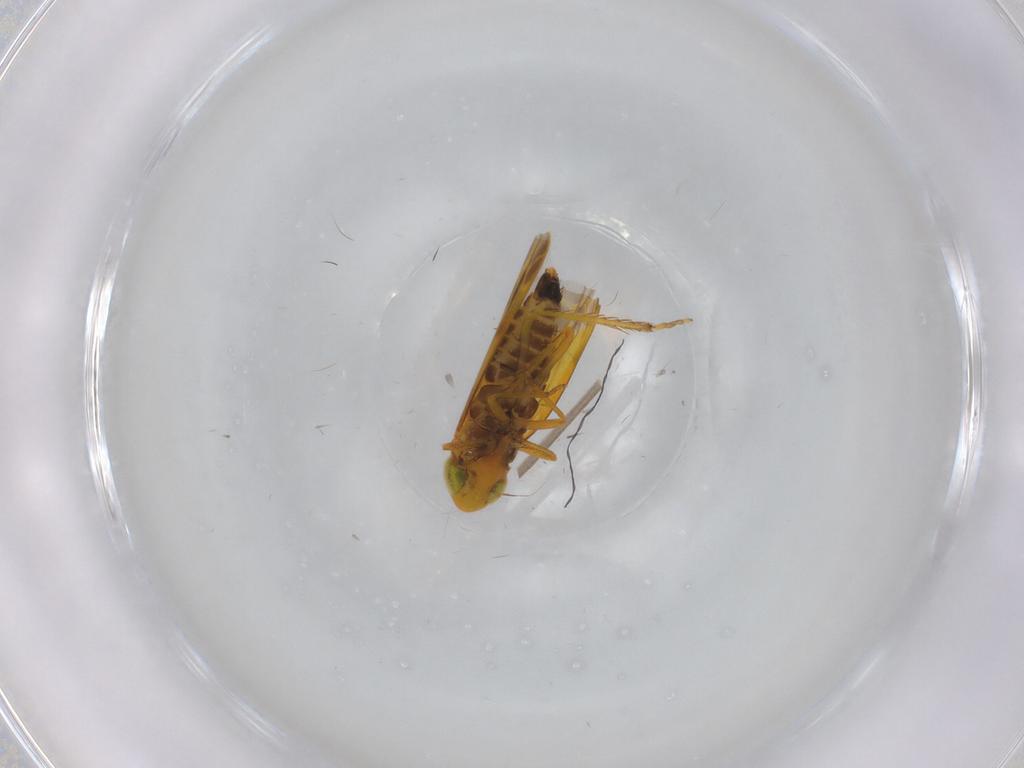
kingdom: Animalia
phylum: Arthropoda
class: Insecta
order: Hemiptera
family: Cicadellidae
